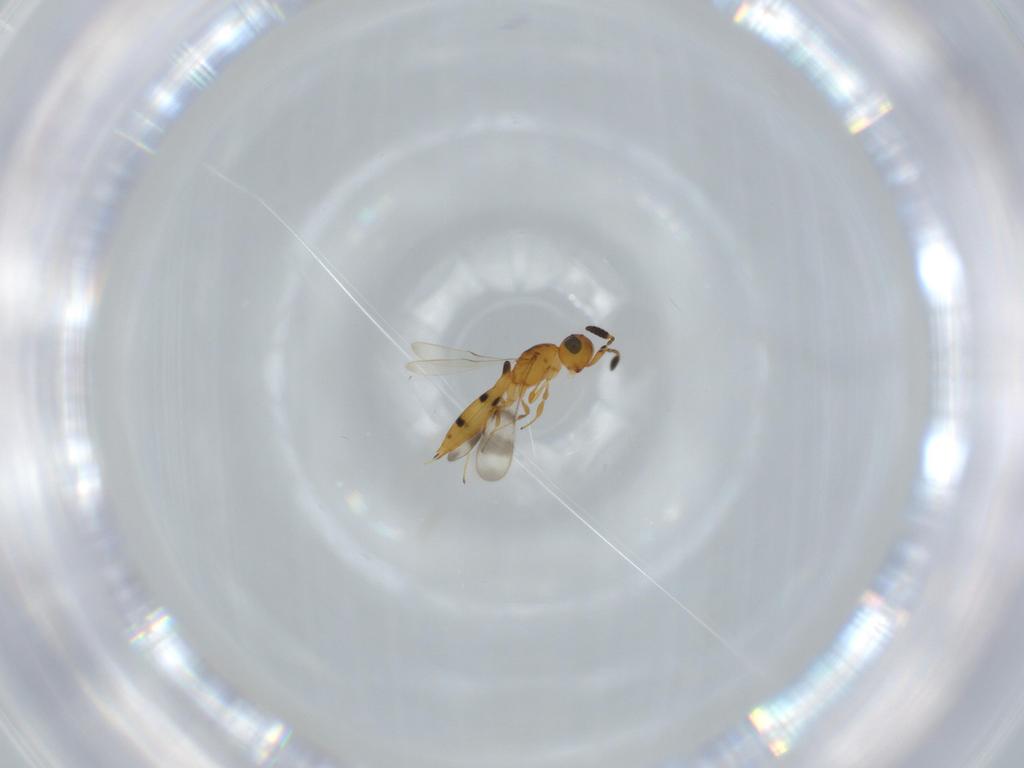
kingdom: Animalia
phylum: Arthropoda
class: Insecta
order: Hymenoptera
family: Scelionidae
